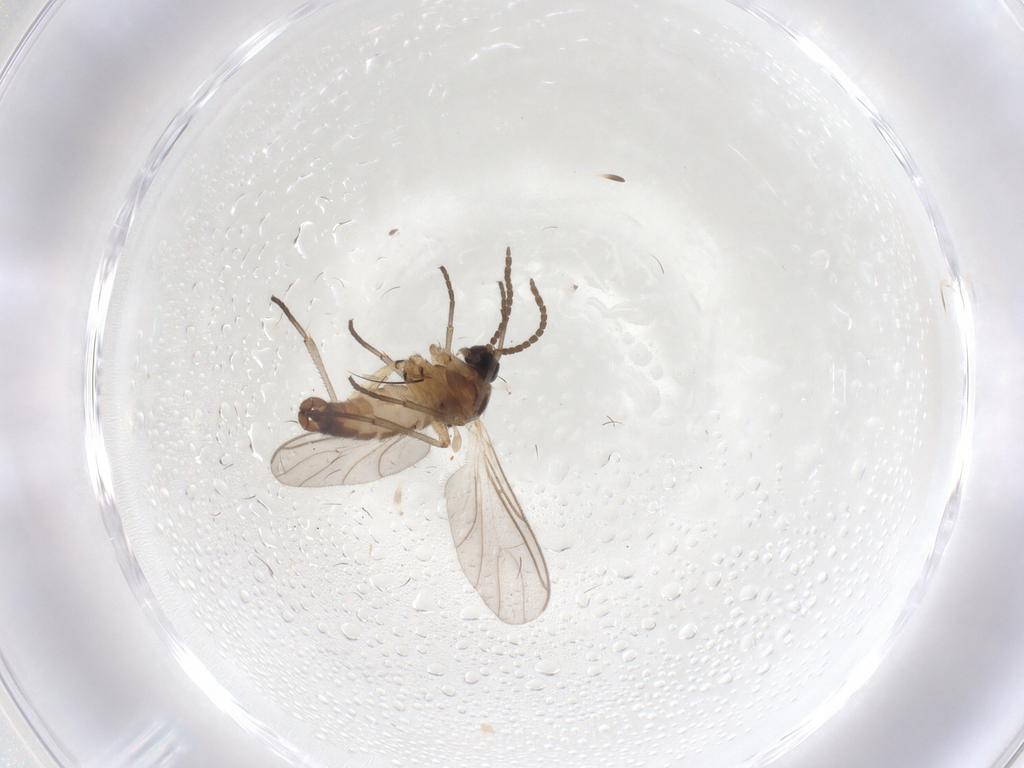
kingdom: Animalia
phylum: Arthropoda
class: Insecta
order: Diptera
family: Sciaridae
